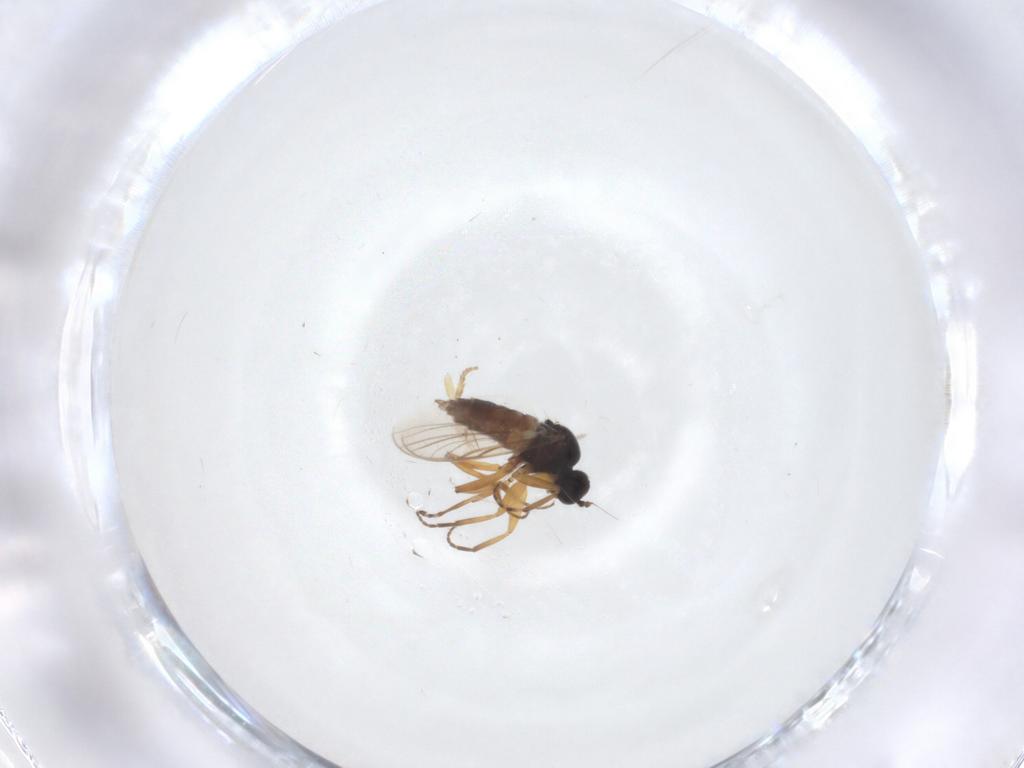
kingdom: Animalia
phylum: Arthropoda
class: Insecta
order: Diptera
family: Hybotidae
